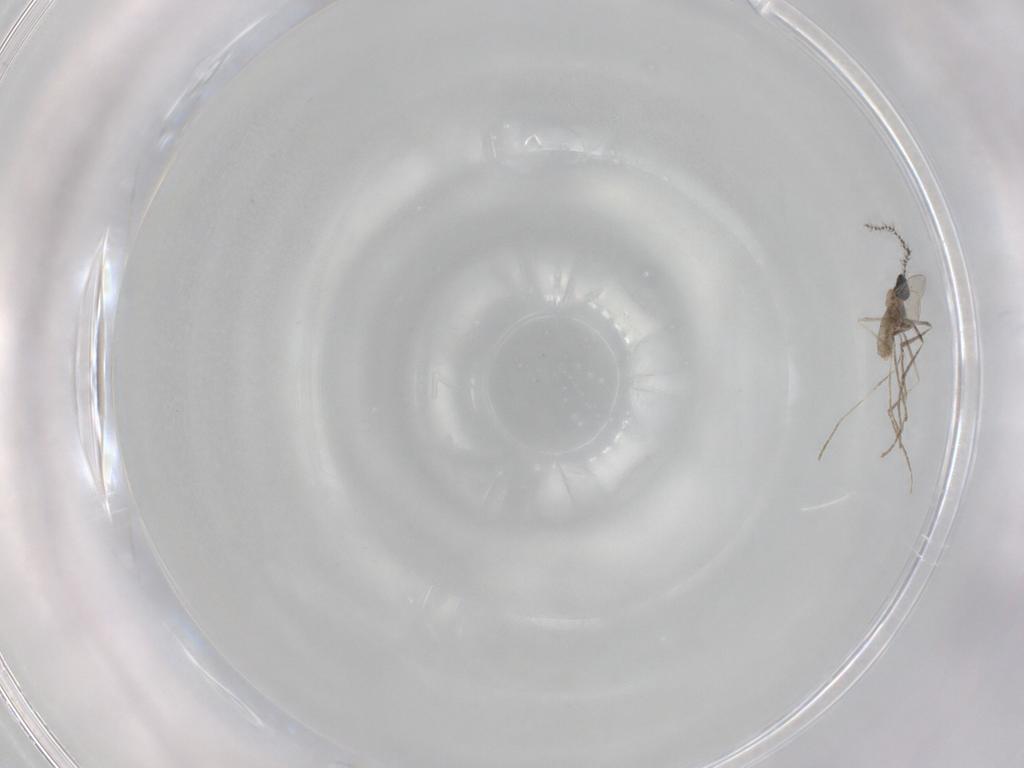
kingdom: Animalia
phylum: Arthropoda
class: Insecta
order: Diptera
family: Cecidomyiidae
